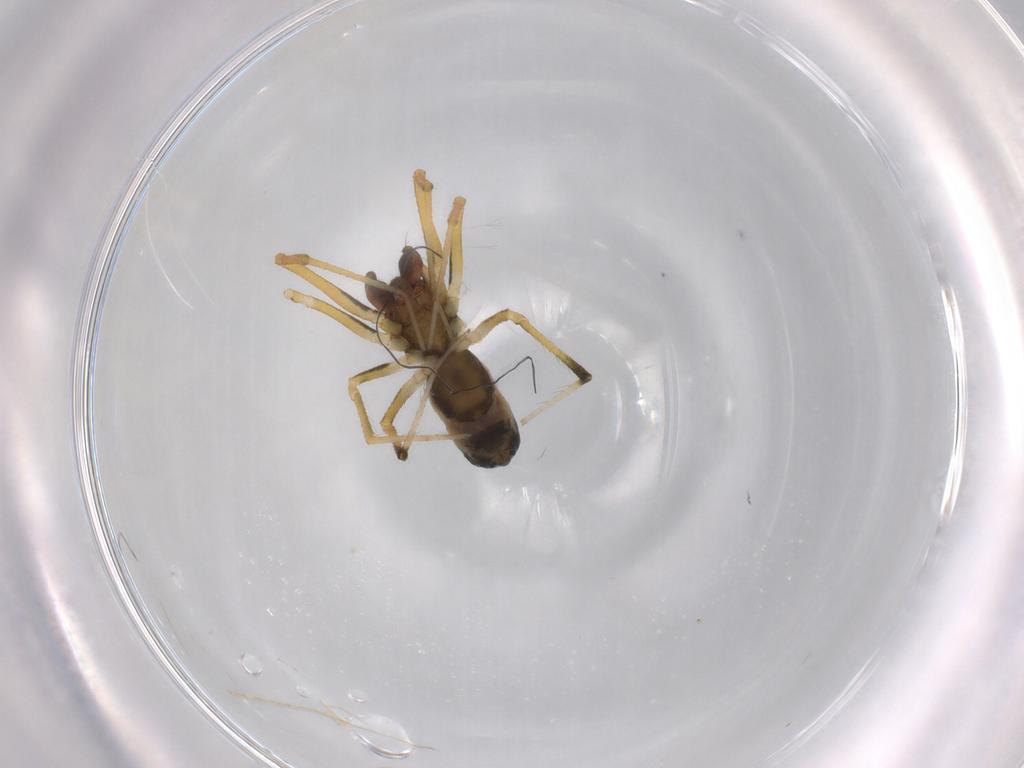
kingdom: Animalia
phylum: Arthropoda
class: Arachnida
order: Araneae
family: Theridiidae
